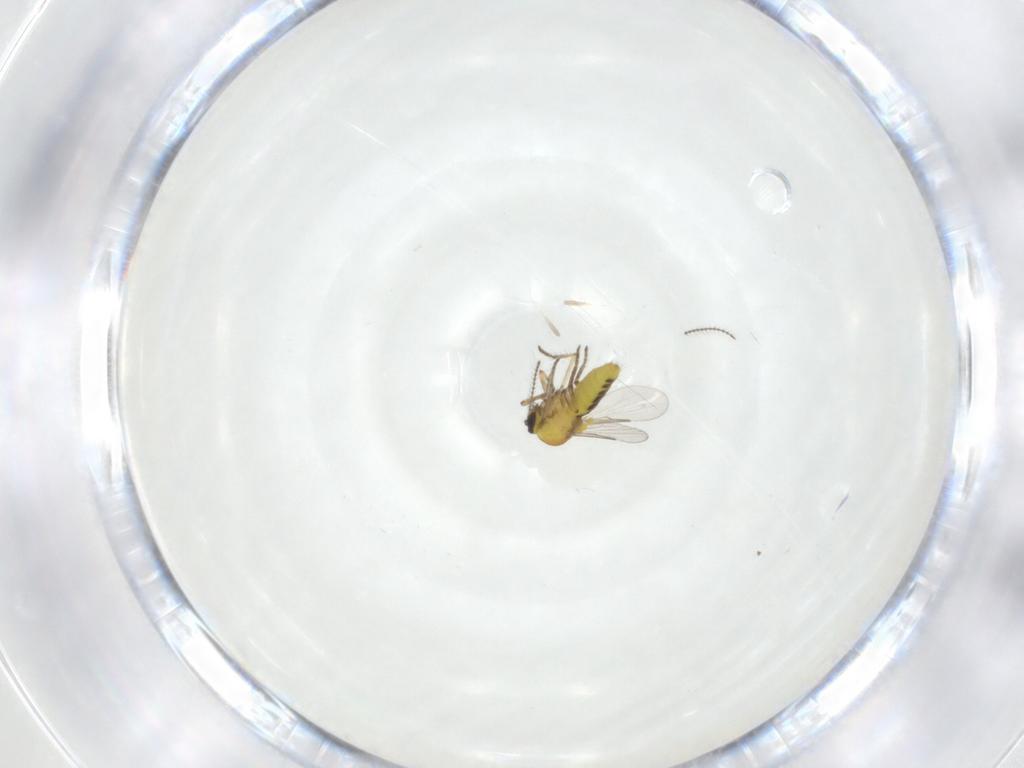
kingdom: Animalia
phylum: Arthropoda
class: Insecta
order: Diptera
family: Ceratopogonidae
